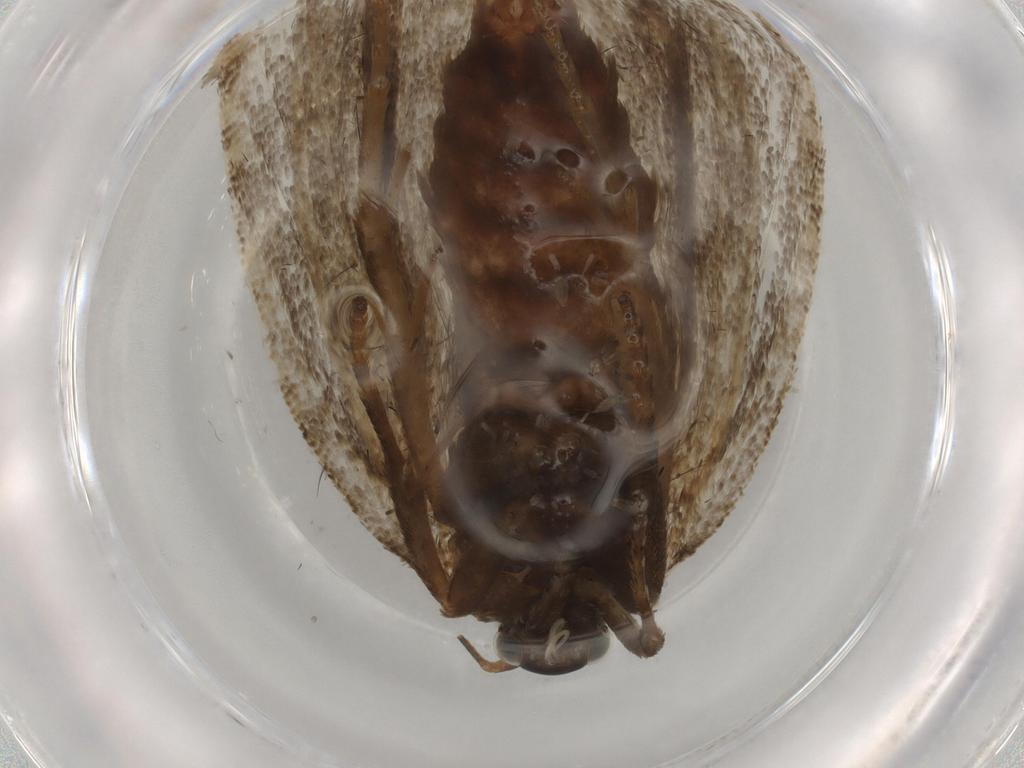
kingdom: Animalia
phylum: Arthropoda
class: Insecta
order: Lepidoptera
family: Tortricidae
